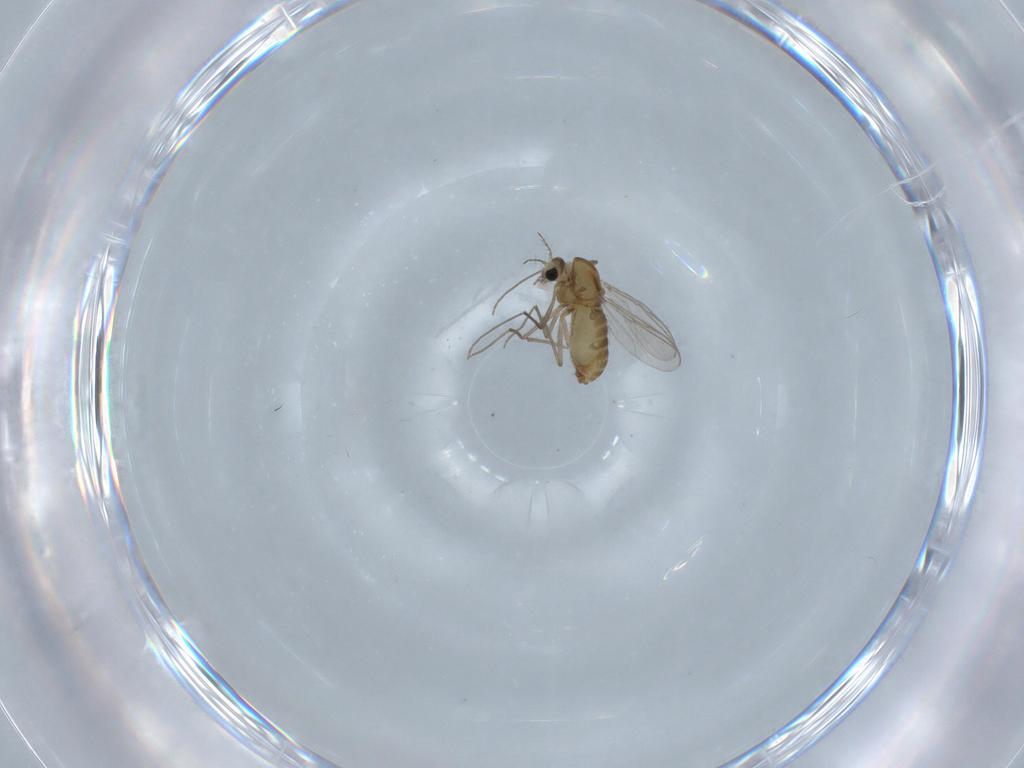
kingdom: Animalia
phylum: Arthropoda
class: Insecta
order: Diptera
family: Chironomidae
